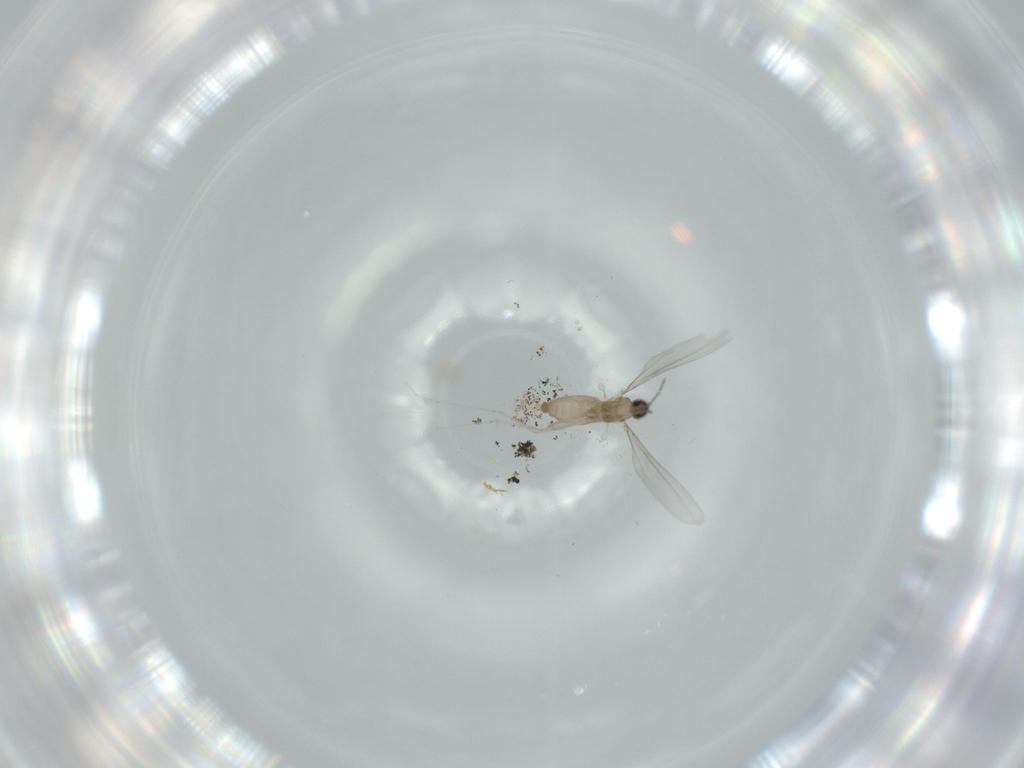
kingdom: Animalia
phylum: Arthropoda
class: Insecta
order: Diptera
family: Cecidomyiidae
